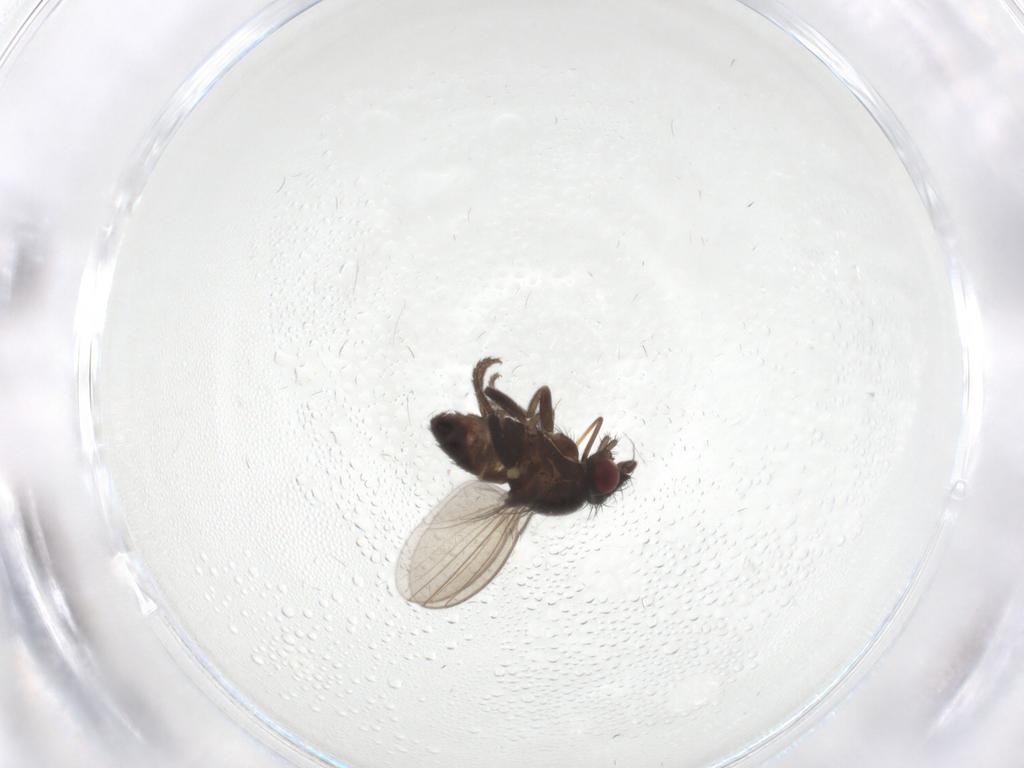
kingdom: Animalia
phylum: Arthropoda
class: Insecta
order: Diptera
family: Milichiidae
